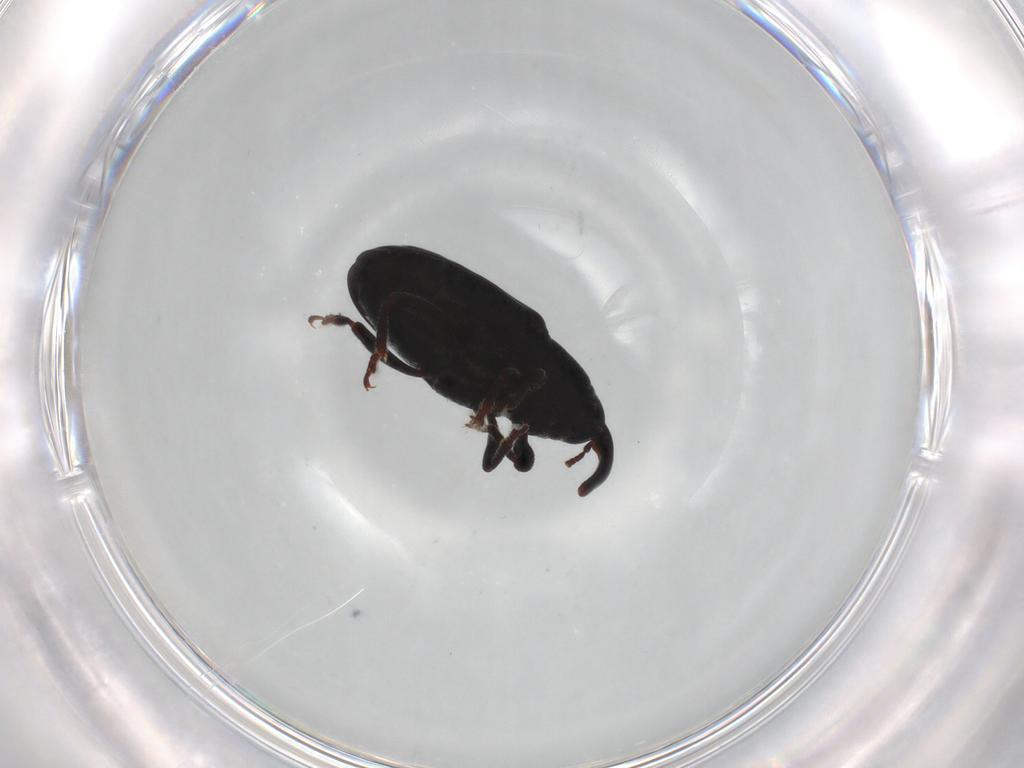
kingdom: Animalia
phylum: Arthropoda
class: Insecta
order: Coleoptera
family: Curculionidae
